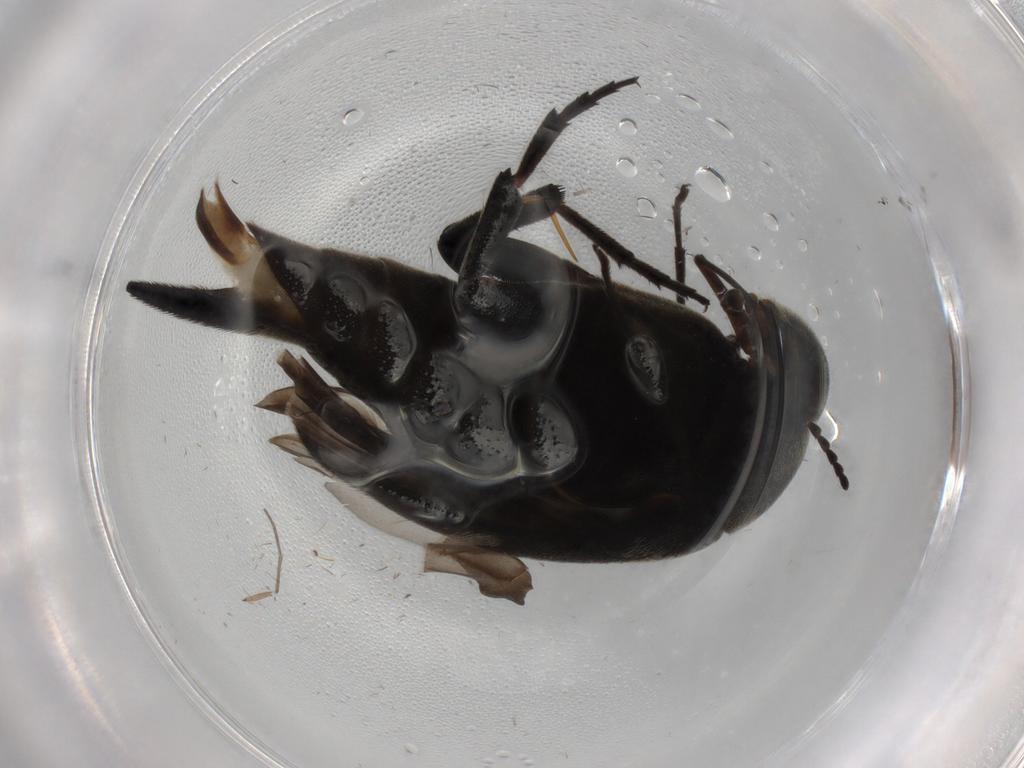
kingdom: Animalia
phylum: Arthropoda
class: Insecta
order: Coleoptera
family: Mordellidae
